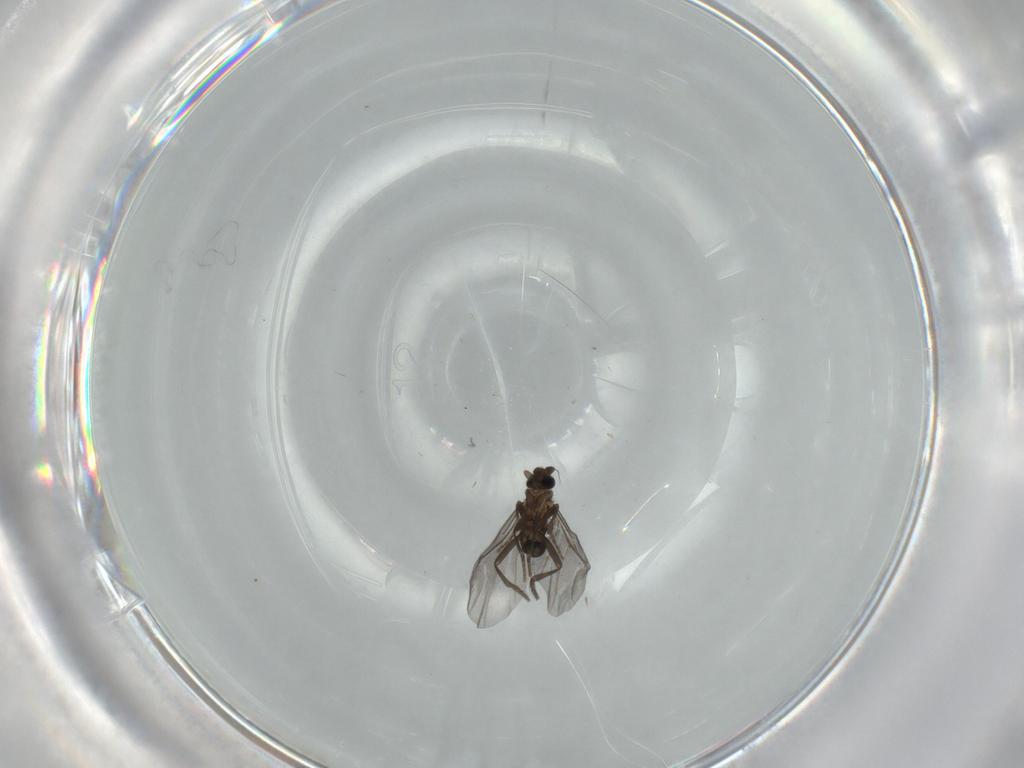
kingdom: Animalia
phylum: Arthropoda
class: Insecta
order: Diptera
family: Phoridae
